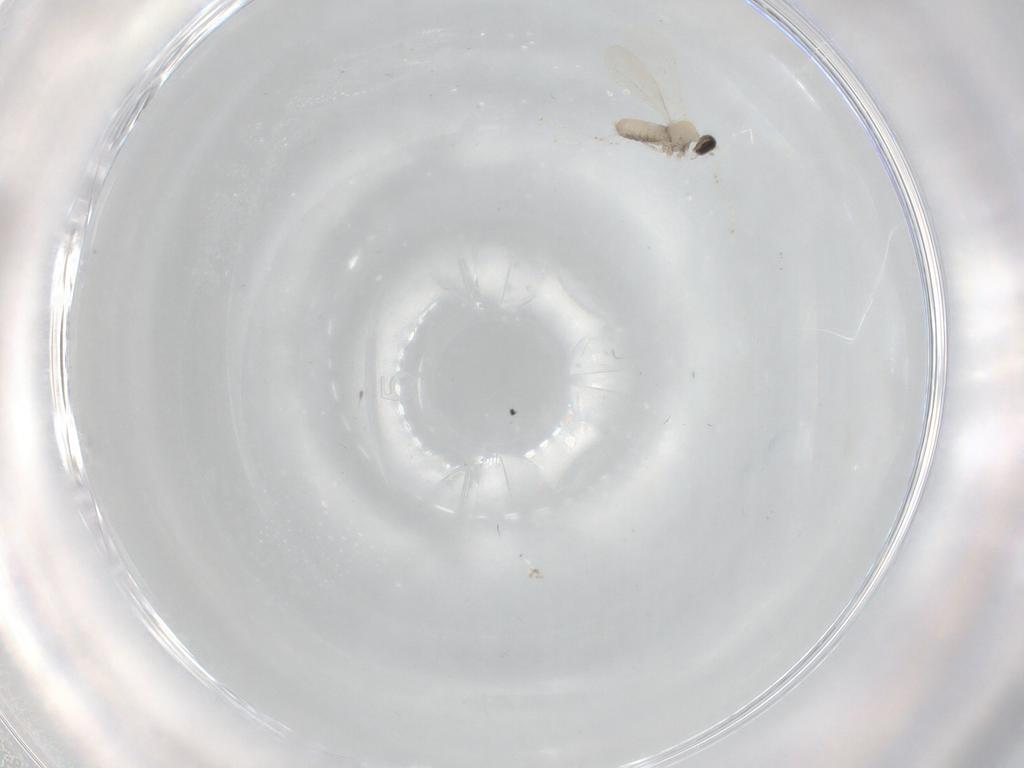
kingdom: Animalia
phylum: Arthropoda
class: Insecta
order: Diptera
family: Cecidomyiidae
